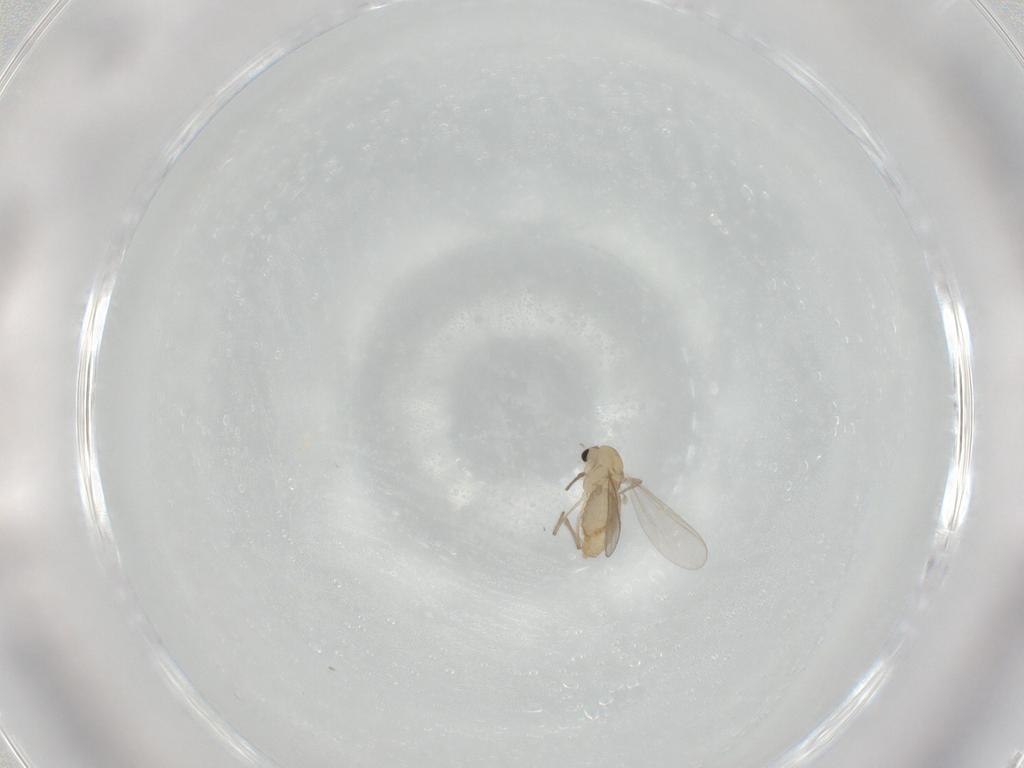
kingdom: Animalia
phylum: Arthropoda
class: Insecta
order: Diptera
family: Chironomidae
